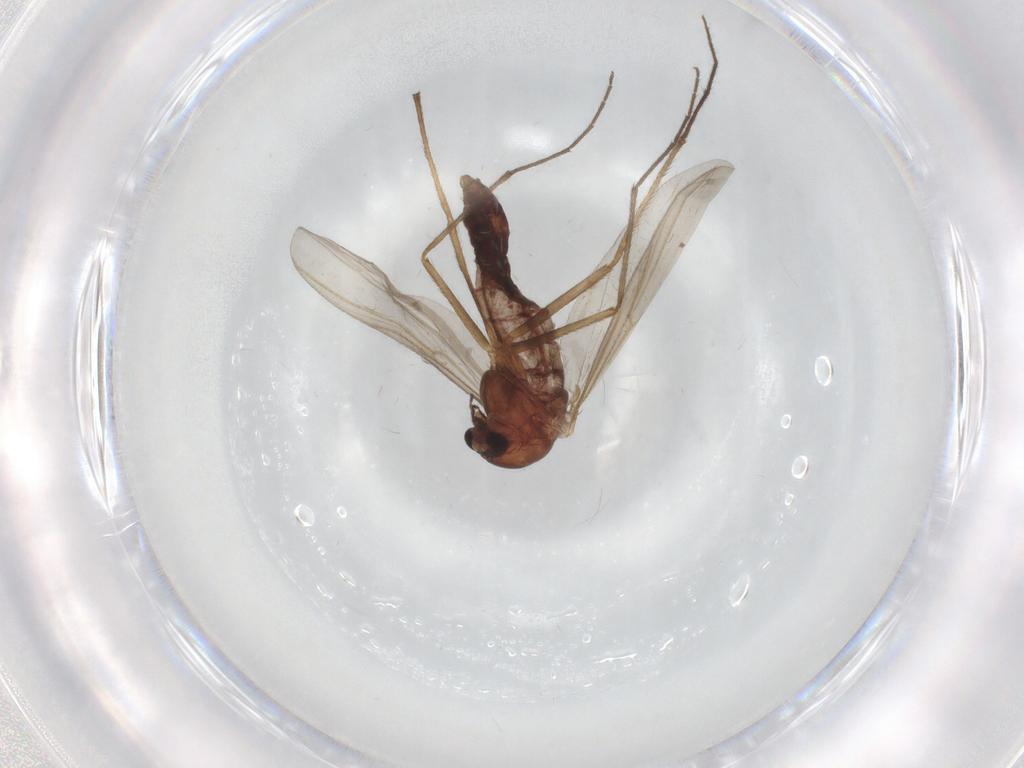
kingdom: Animalia
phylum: Arthropoda
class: Insecta
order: Diptera
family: Chironomidae
